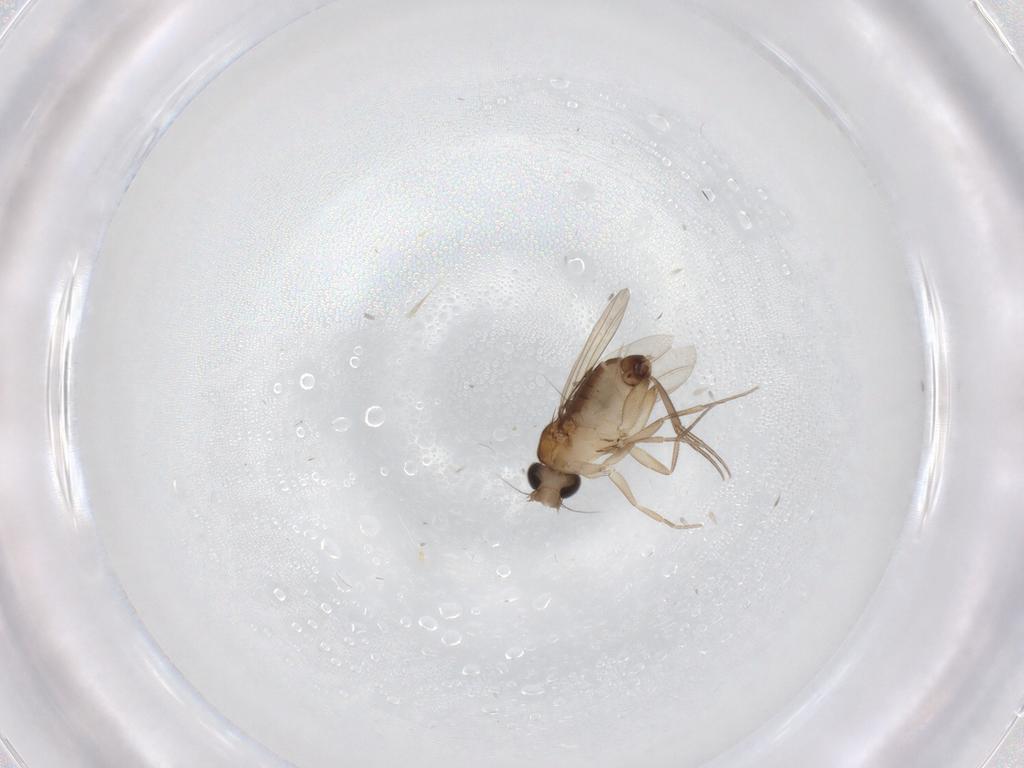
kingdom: Animalia
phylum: Arthropoda
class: Insecta
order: Diptera
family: Phoridae
